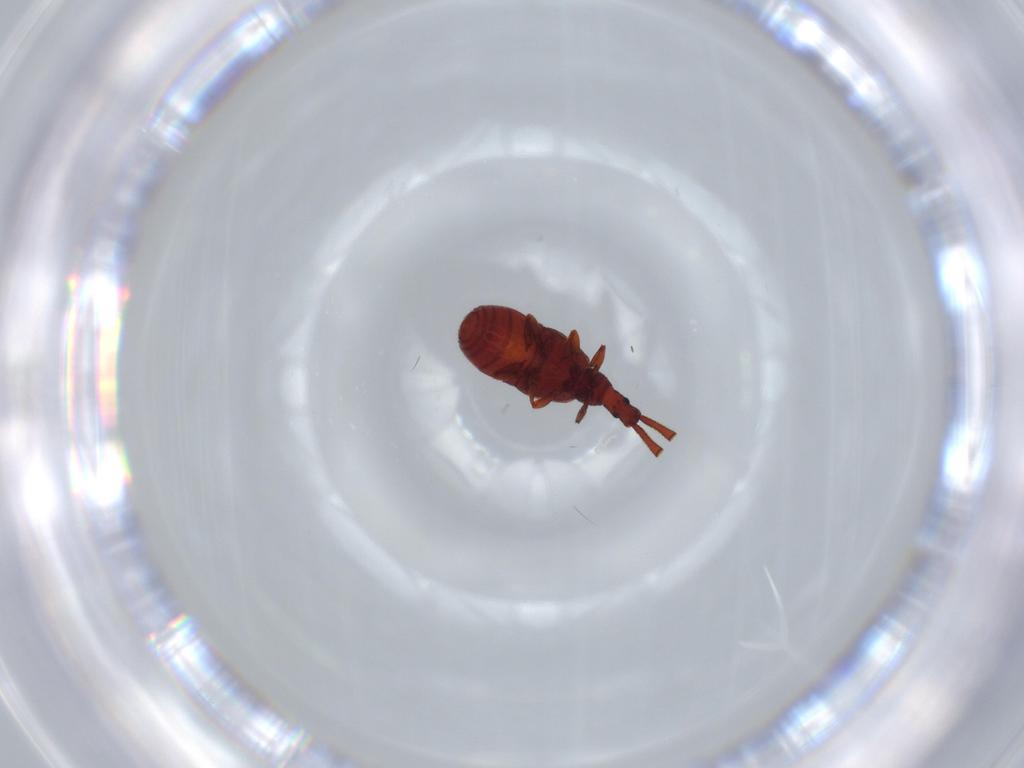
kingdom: Animalia
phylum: Arthropoda
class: Insecta
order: Coleoptera
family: Staphylinidae
